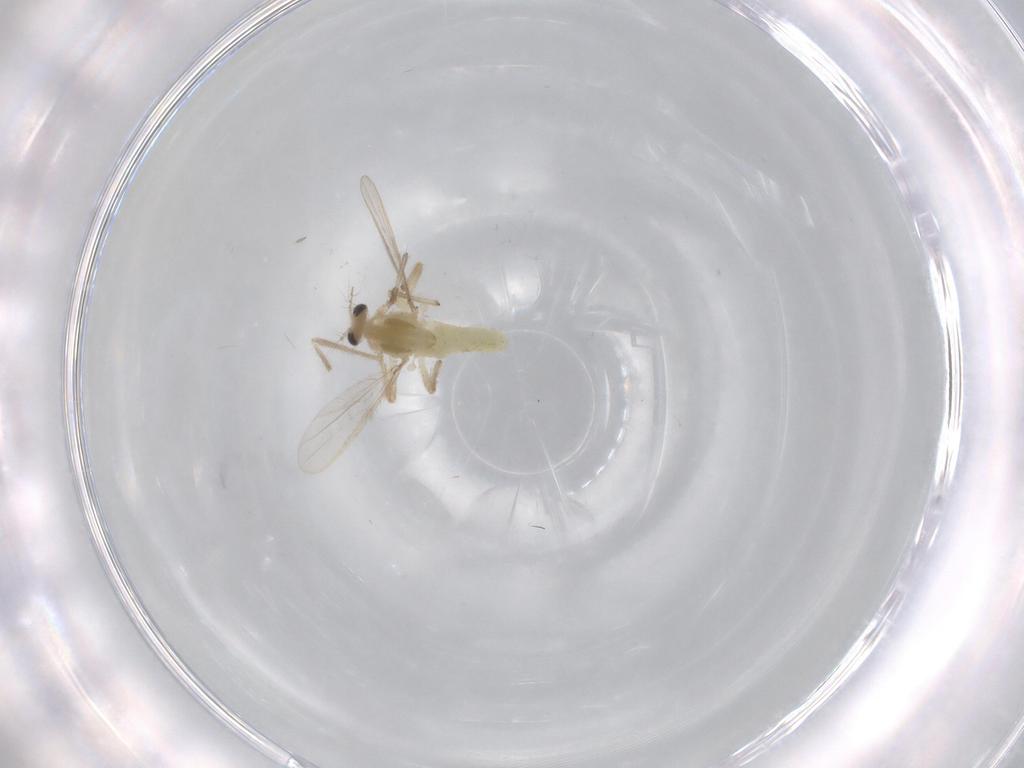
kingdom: Animalia
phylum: Arthropoda
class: Insecta
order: Diptera
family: Chironomidae
